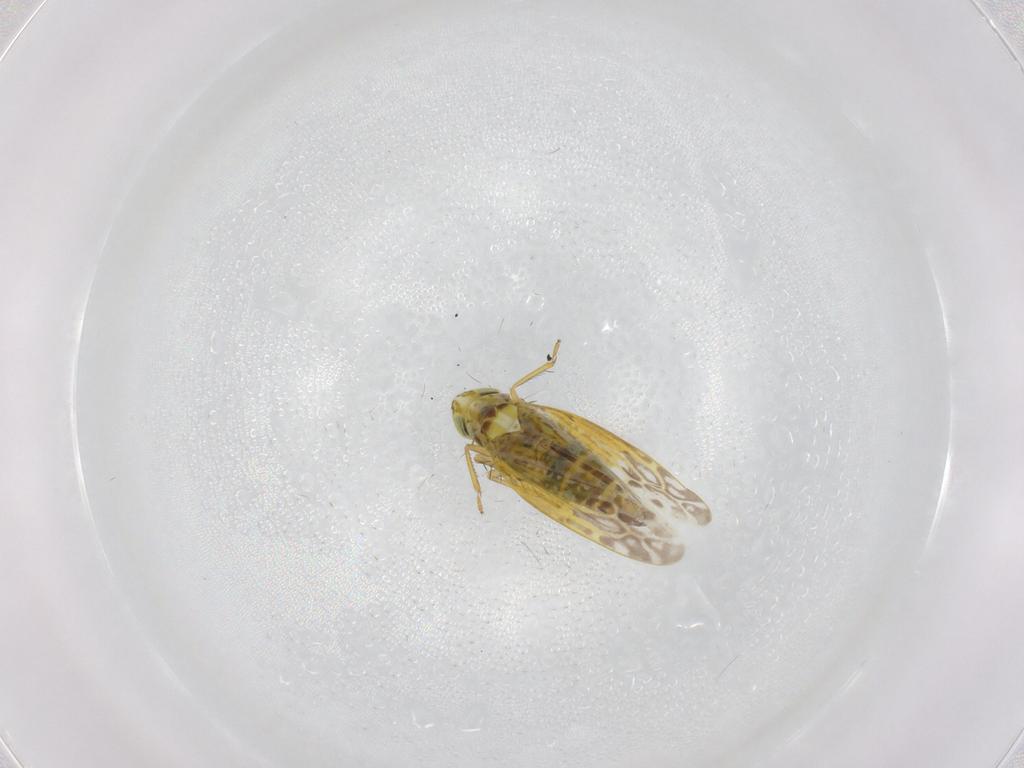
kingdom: Animalia
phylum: Arthropoda
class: Insecta
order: Hemiptera
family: Cicadellidae
